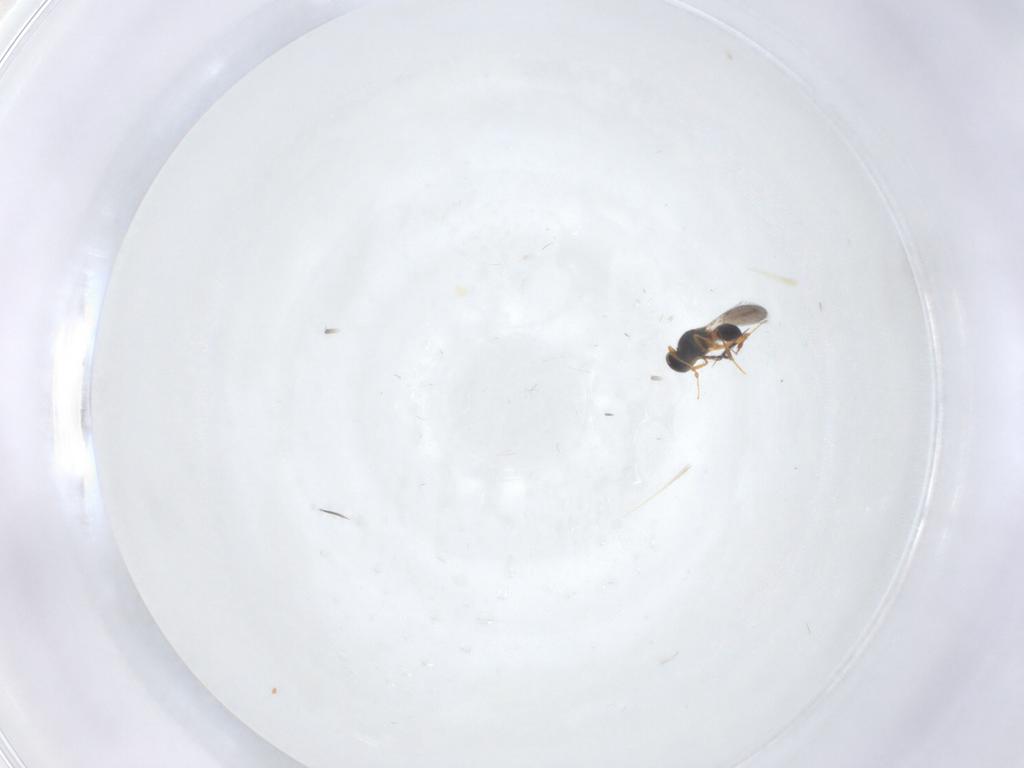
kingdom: Animalia
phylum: Arthropoda
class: Insecta
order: Hymenoptera
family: Platygastridae
